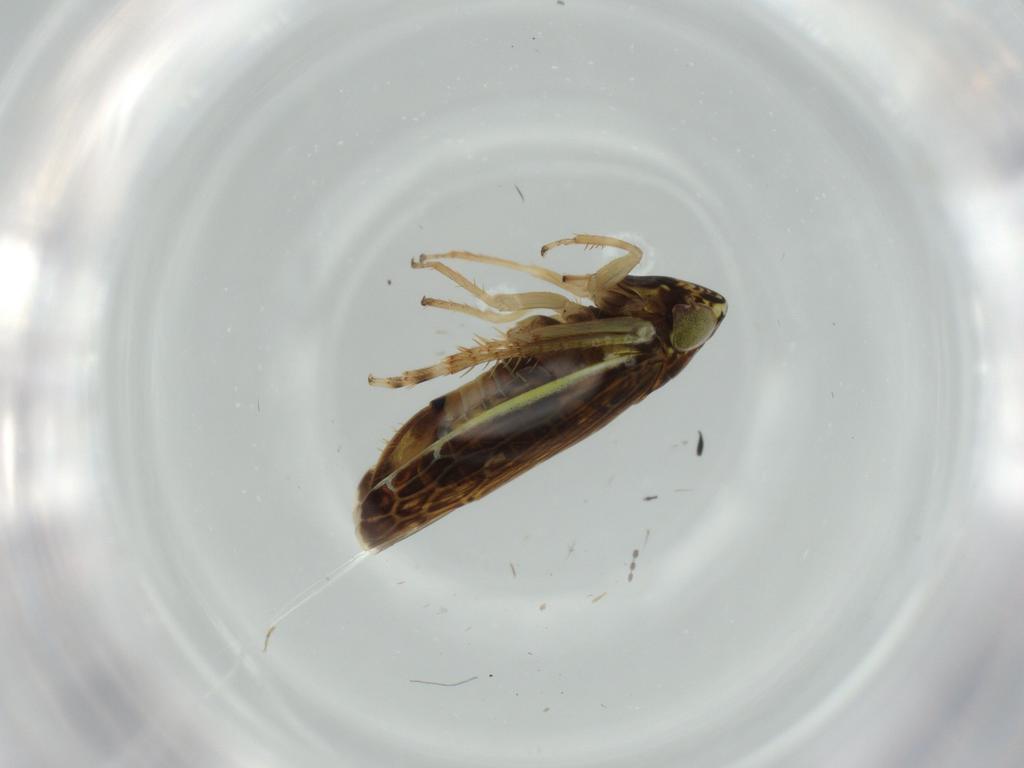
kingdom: Animalia
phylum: Arthropoda
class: Insecta
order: Hemiptera
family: Cicadellidae
